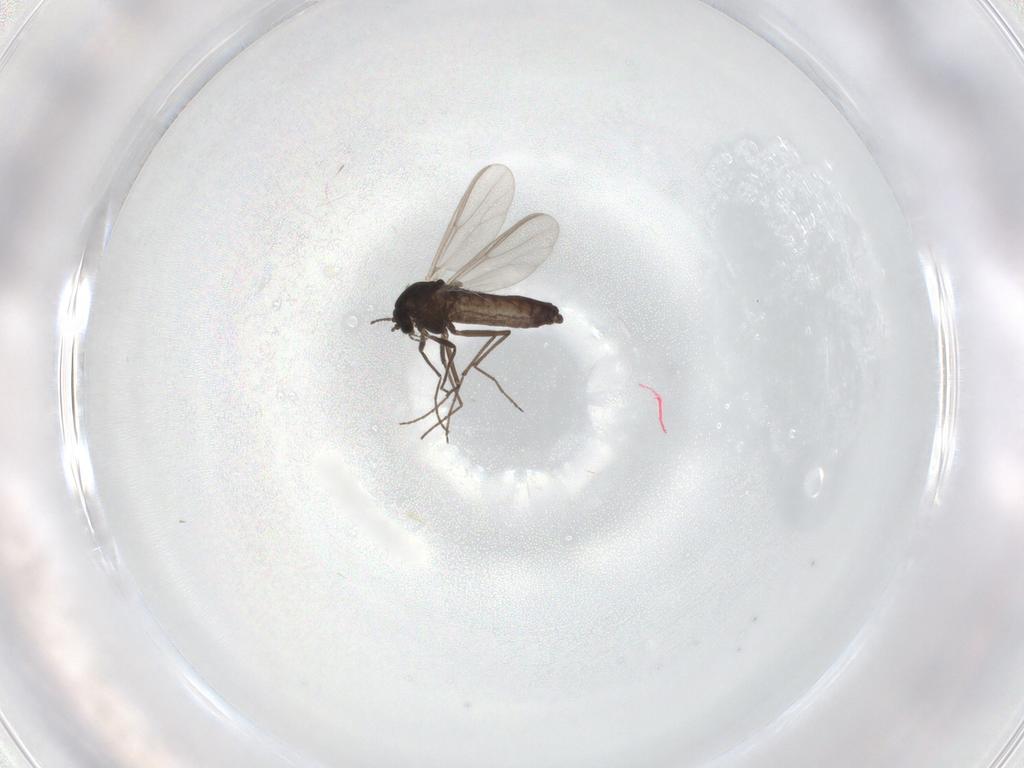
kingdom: Animalia
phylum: Arthropoda
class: Insecta
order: Diptera
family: Chironomidae
